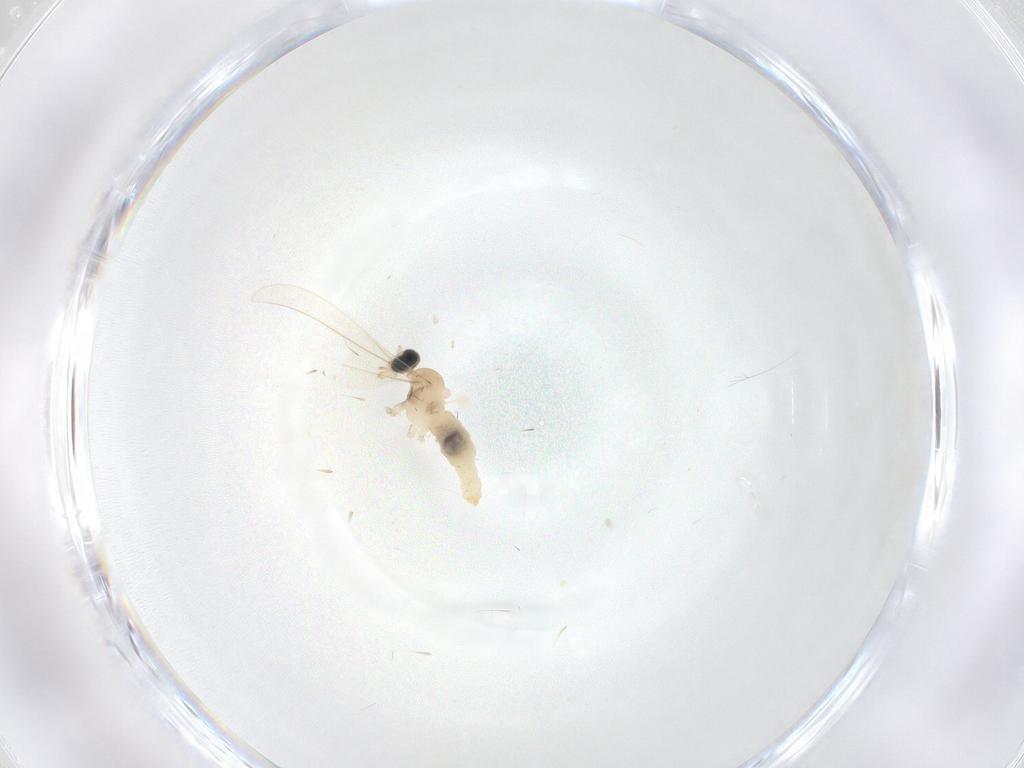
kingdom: Animalia
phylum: Arthropoda
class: Insecta
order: Diptera
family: Cecidomyiidae
